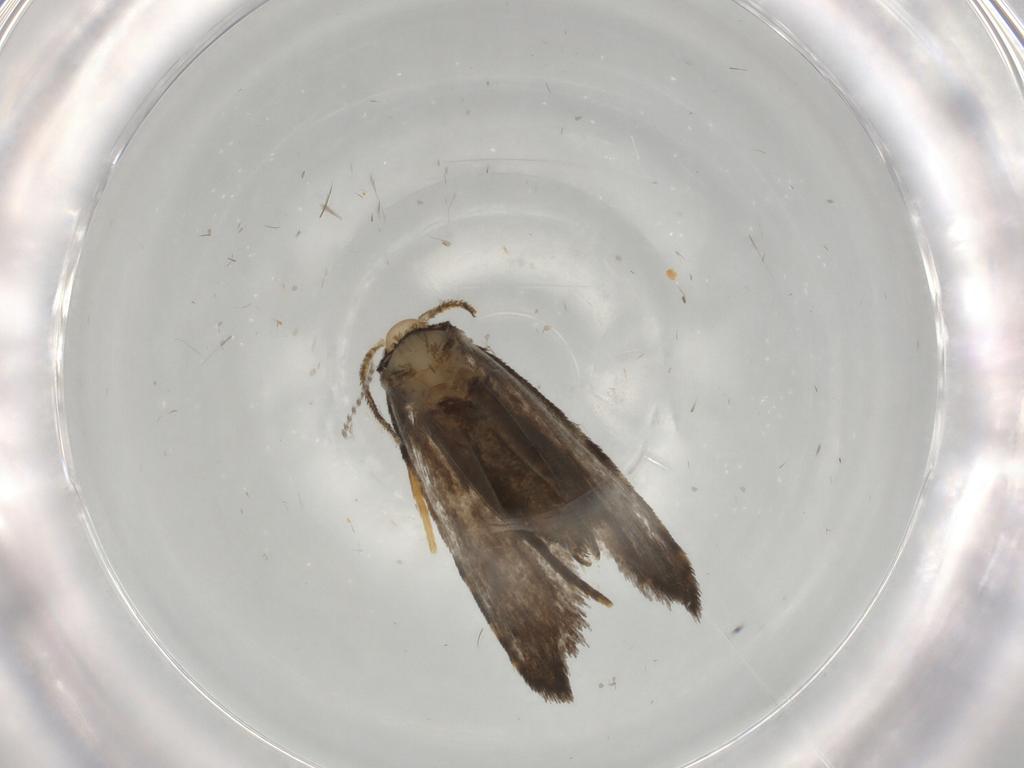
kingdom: Animalia
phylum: Arthropoda
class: Insecta
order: Lepidoptera
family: Psychidae
